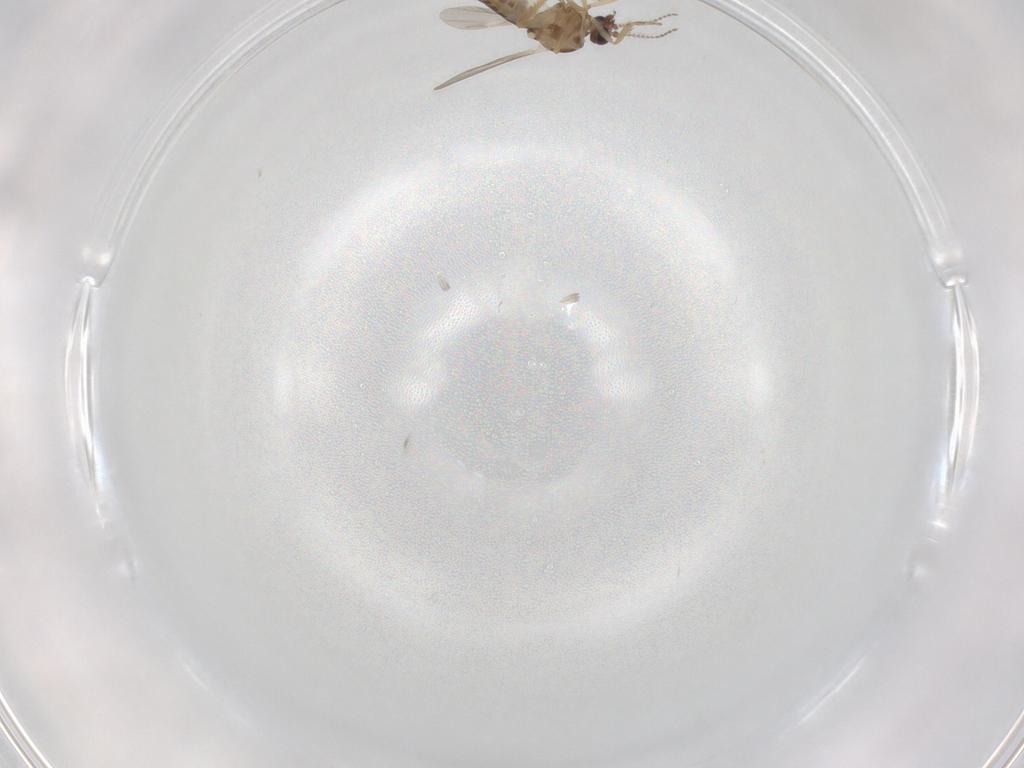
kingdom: Animalia
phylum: Arthropoda
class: Insecta
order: Diptera
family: Ceratopogonidae
